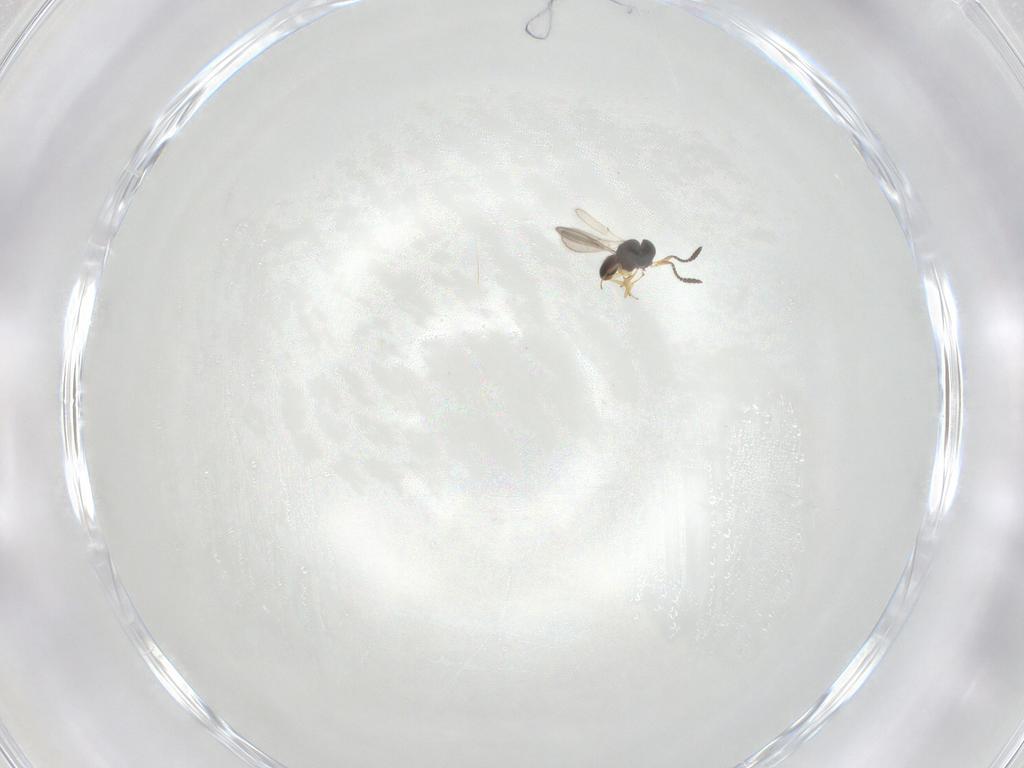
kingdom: Animalia
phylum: Arthropoda
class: Insecta
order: Hymenoptera
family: Scelionidae
